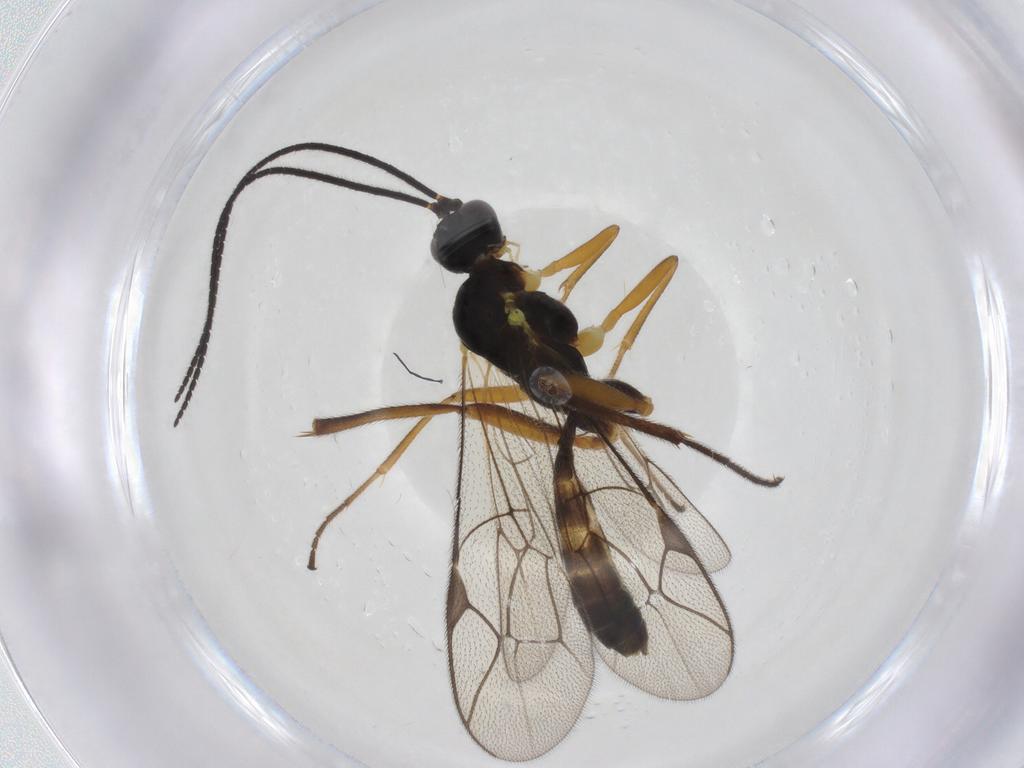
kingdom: Animalia
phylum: Arthropoda
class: Insecta
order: Hymenoptera
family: Ichneumonidae
